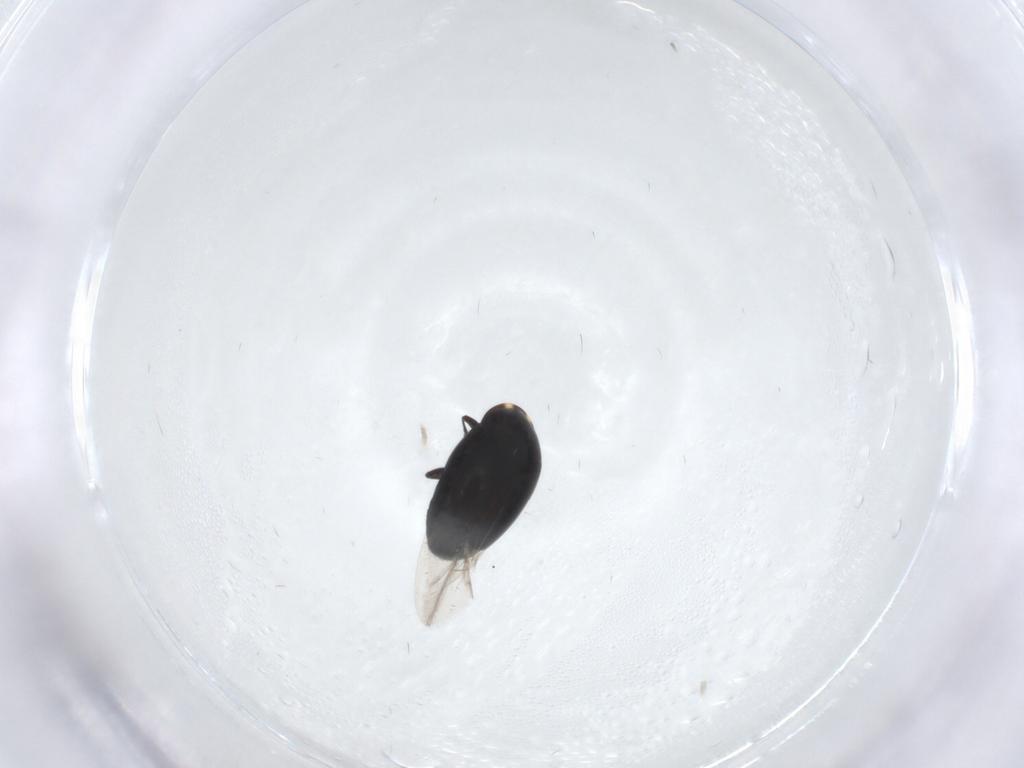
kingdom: Animalia
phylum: Arthropoda
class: Insecta
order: Coleoptera
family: Corylophidae
